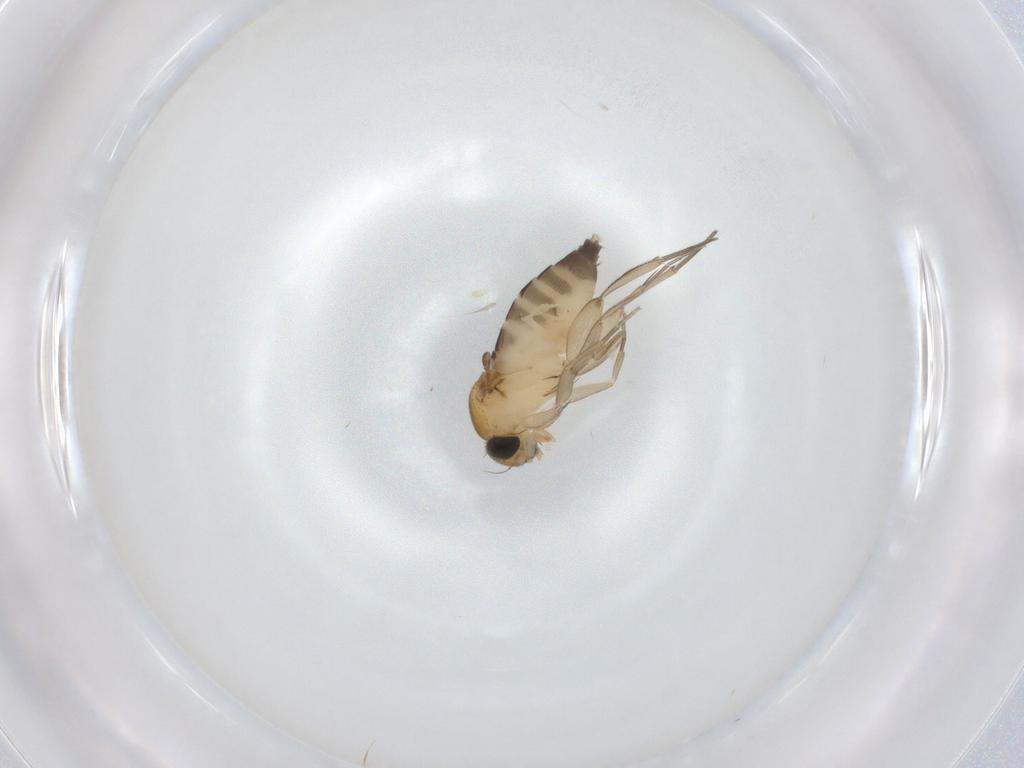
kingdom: Animalia
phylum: Arthropoda
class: Insecta
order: Diptera
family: Phoridae
